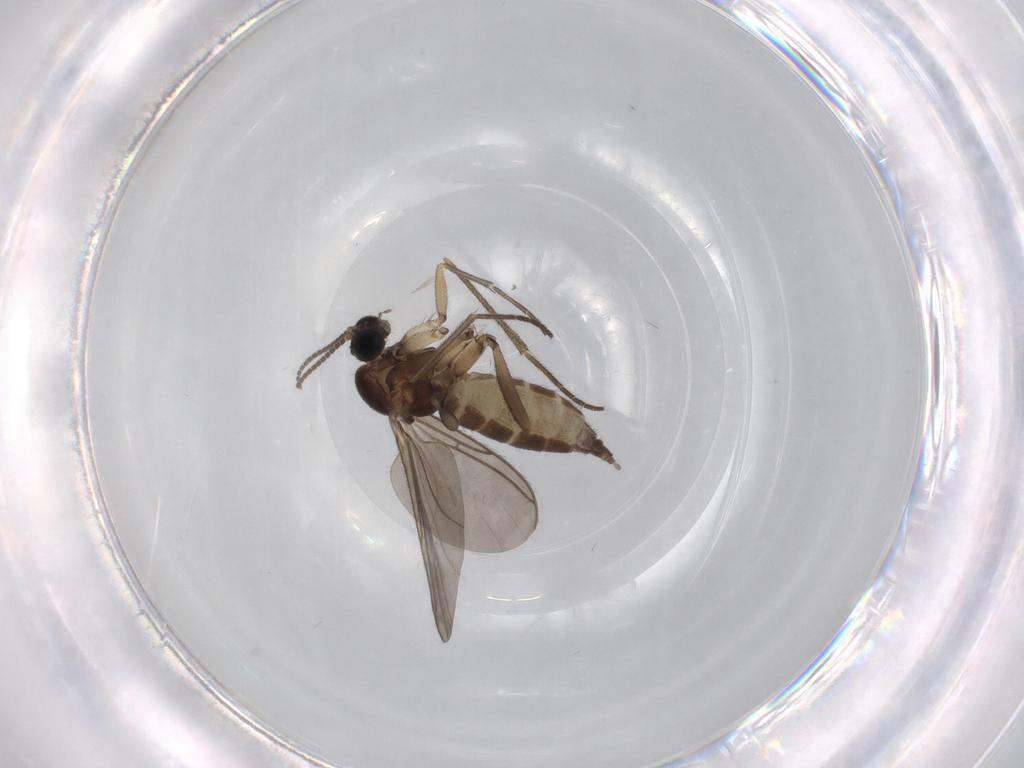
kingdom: Animalia
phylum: Arthropoda
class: Insecta
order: Diptera
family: Sciaridae
